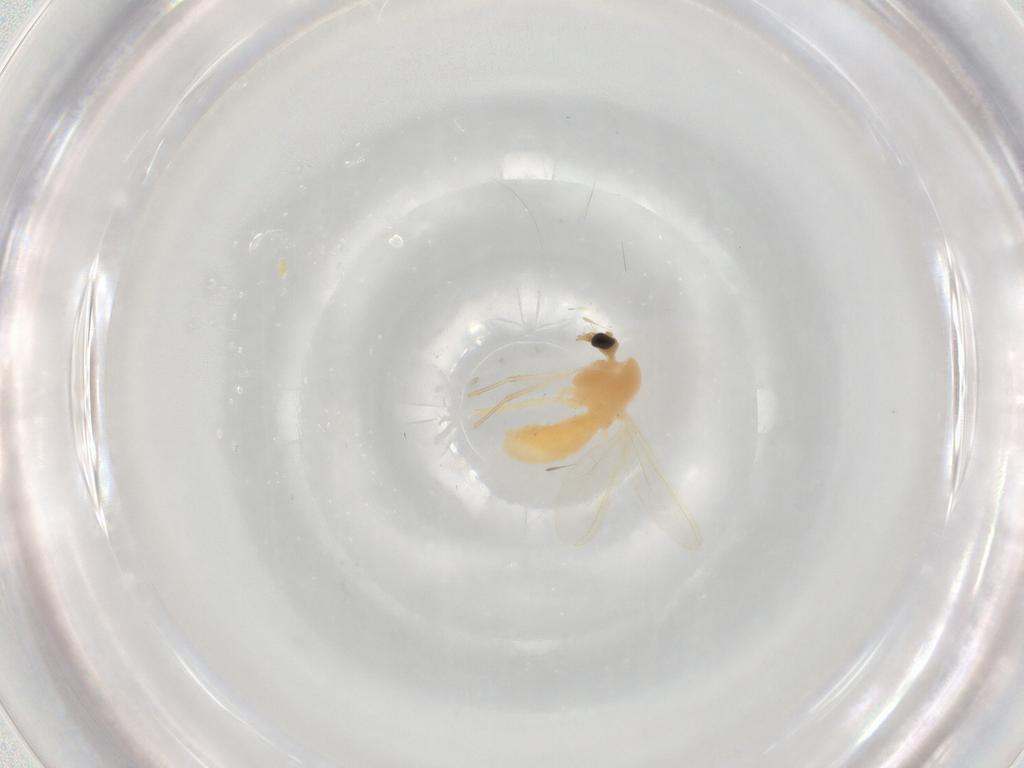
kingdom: Animalia
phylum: Arthropoda
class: Insecta
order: Diptera
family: Chironomidae
